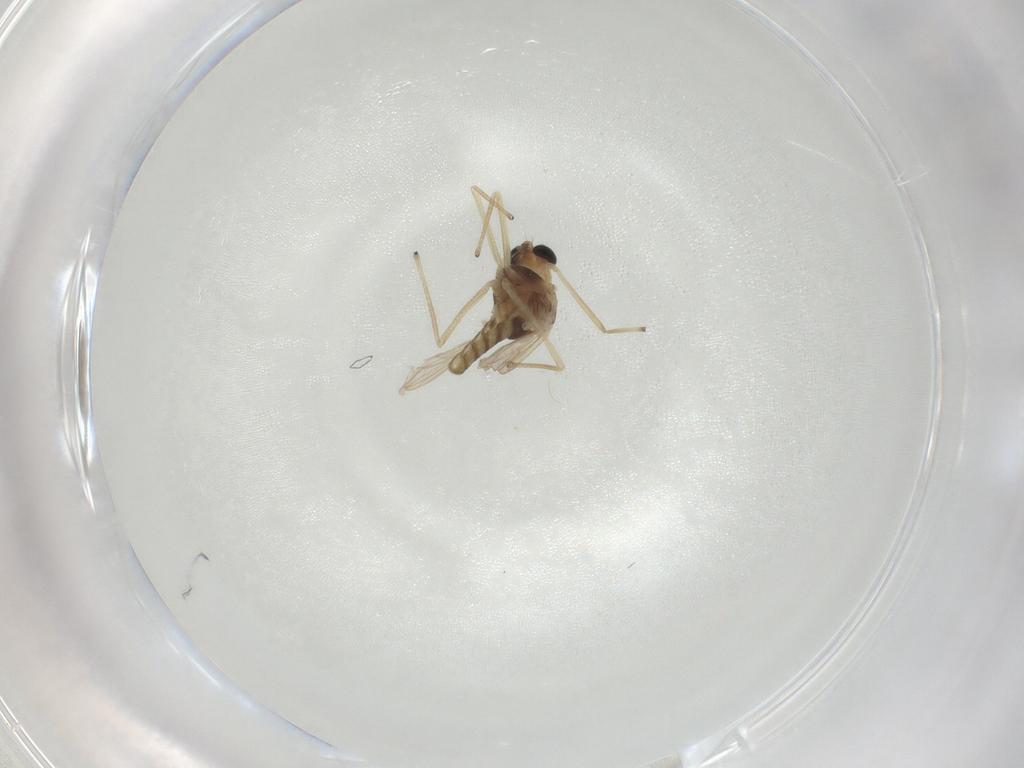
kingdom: Animalia
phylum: Arthropoda
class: Insecta
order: Diptera
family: Chironomidae
